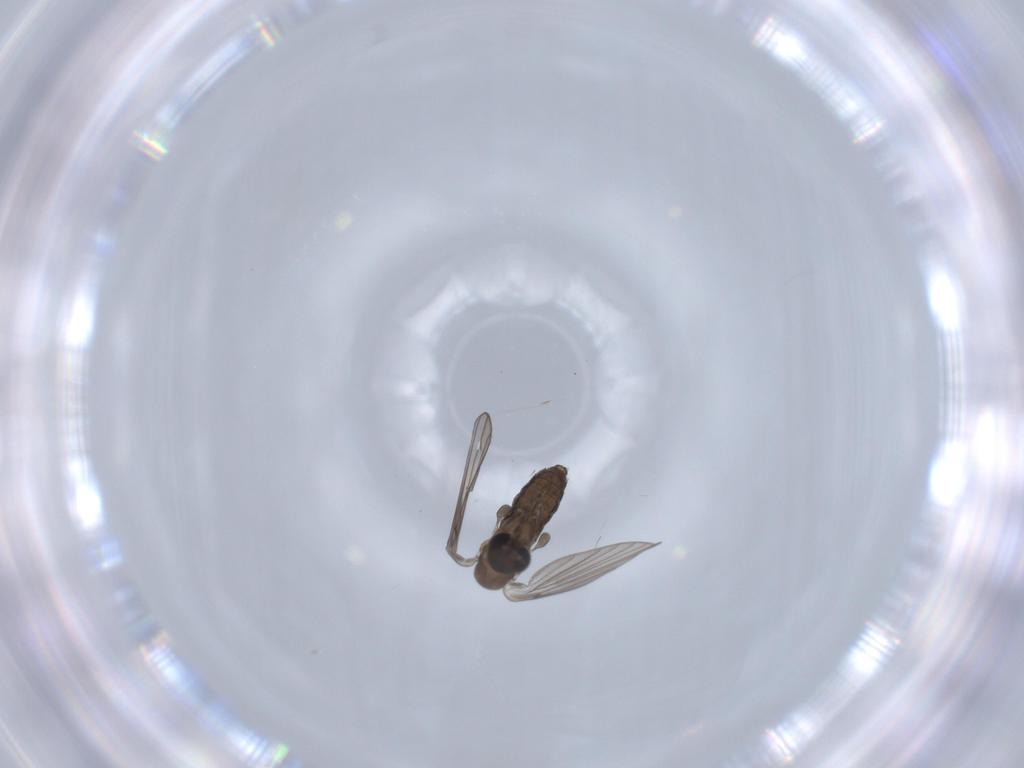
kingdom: Animalia
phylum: Arthropoda
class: Insecta
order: Diptera
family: Psychodidae
